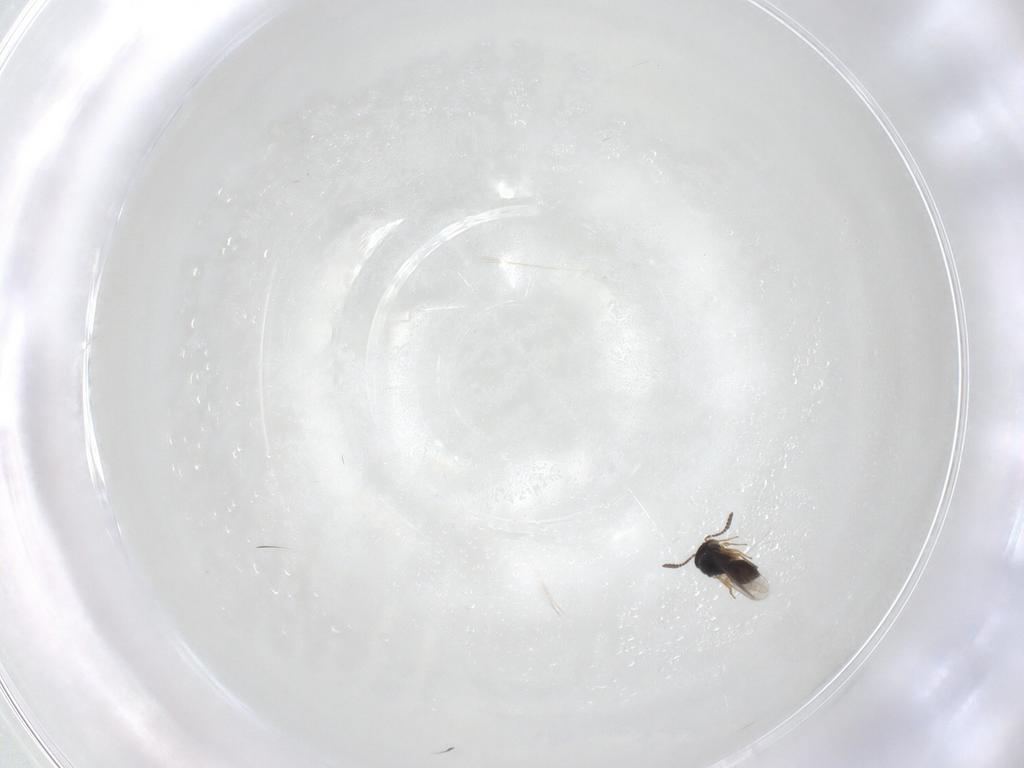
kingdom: Animalia
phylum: Arthropoda
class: Insecta
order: Hymenoptera
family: Scelionidae
